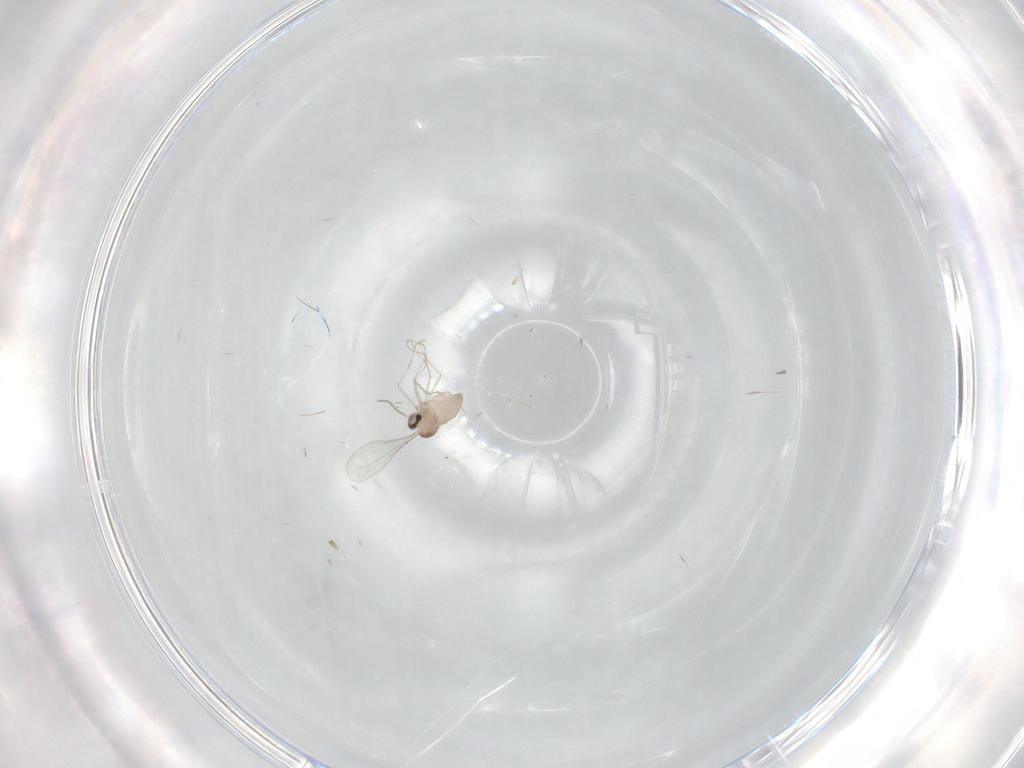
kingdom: Animalia
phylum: Arthropoda
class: Insecta
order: Diptera
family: Cecidomyiidae
